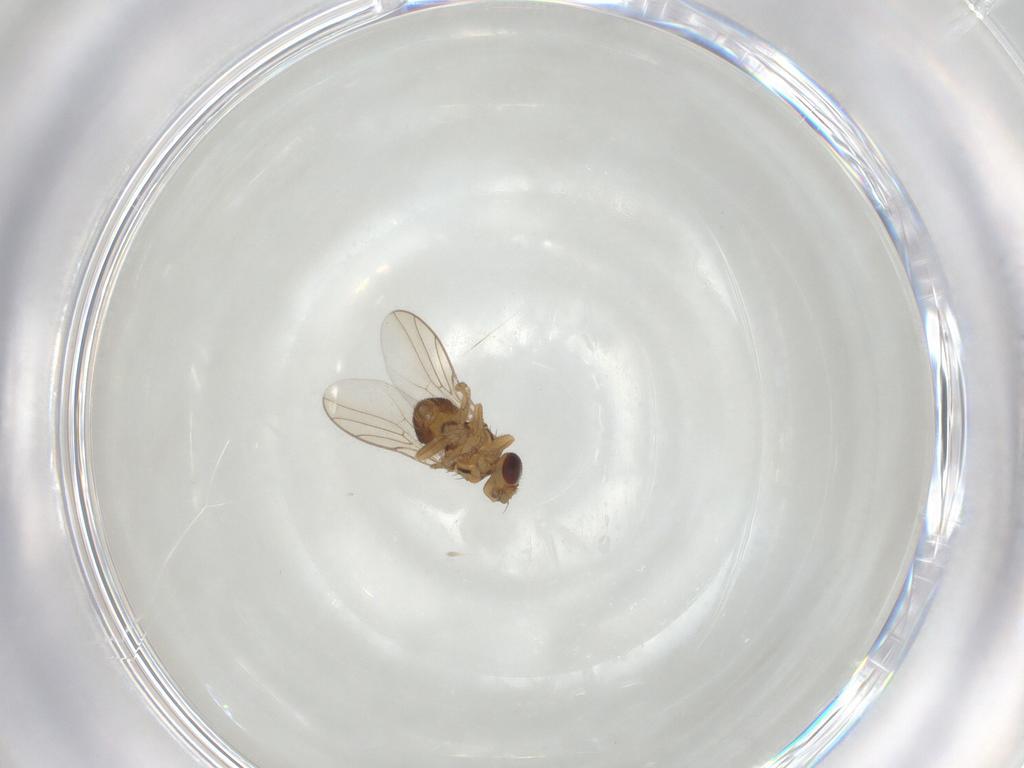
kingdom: Animalia
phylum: Arthropoda
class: Insecta
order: Diptera
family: Chloropidae
